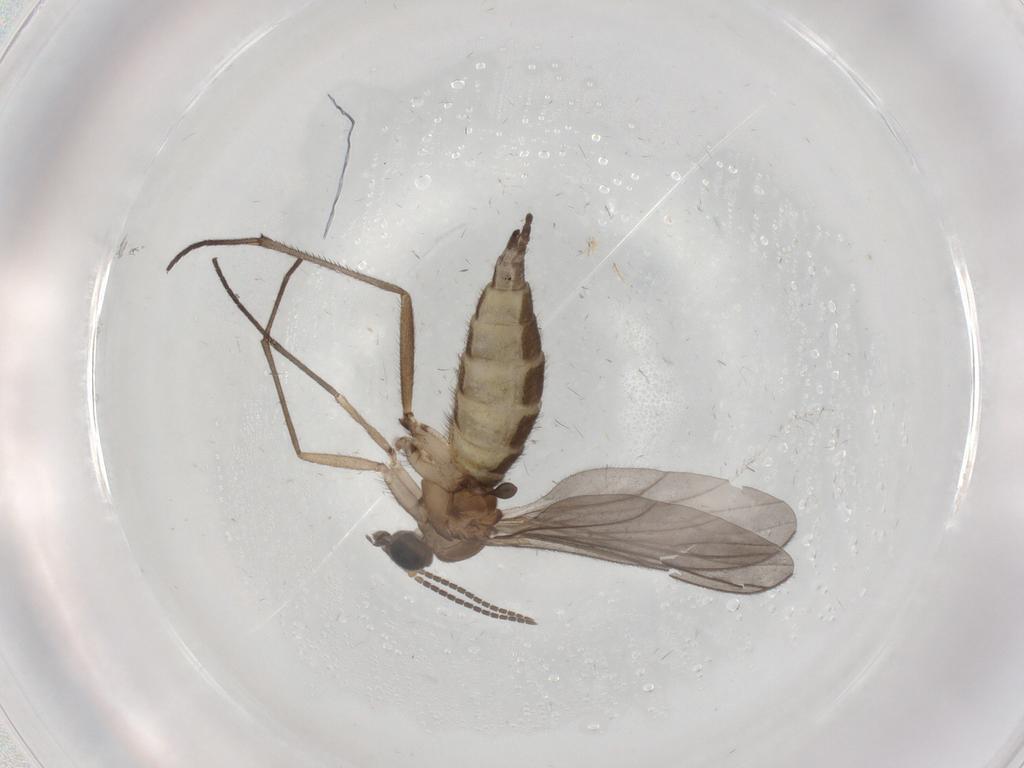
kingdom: Animalia
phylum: Arthropoda
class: Insecta
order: Diptera
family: Sciaridae
